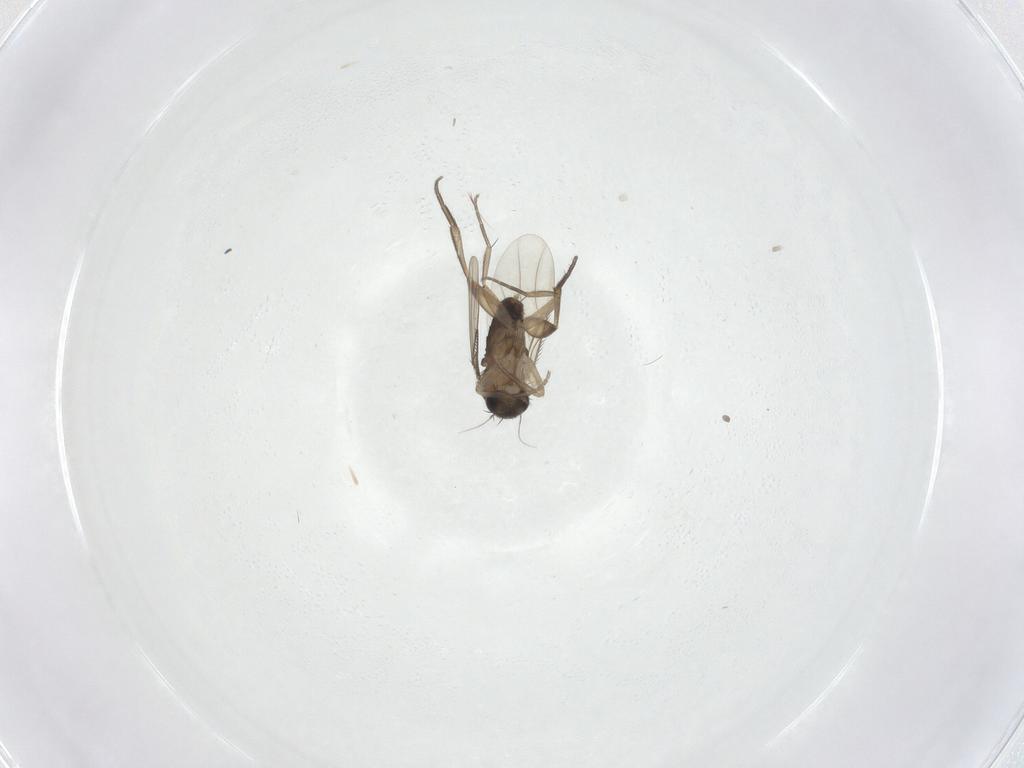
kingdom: Animalia
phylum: Arthropoda
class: Insecta
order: Diptera
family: Phoridae
